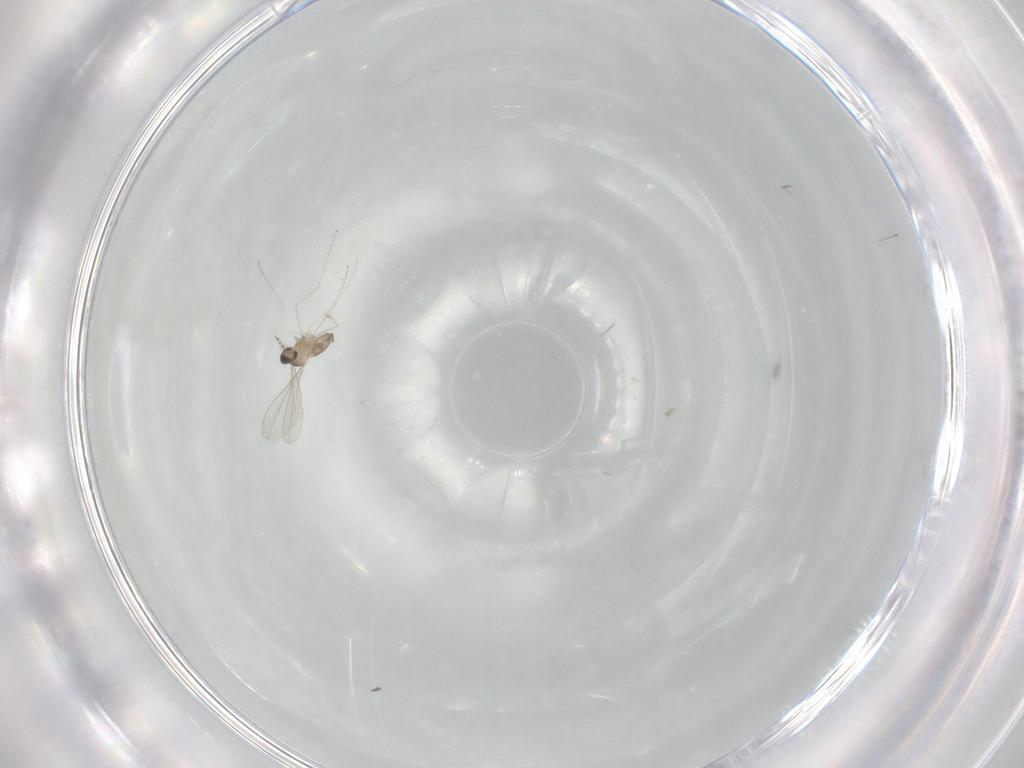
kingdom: Animalia
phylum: Arthropoda
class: Insecta
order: Diptera
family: Cecidomyiidae
